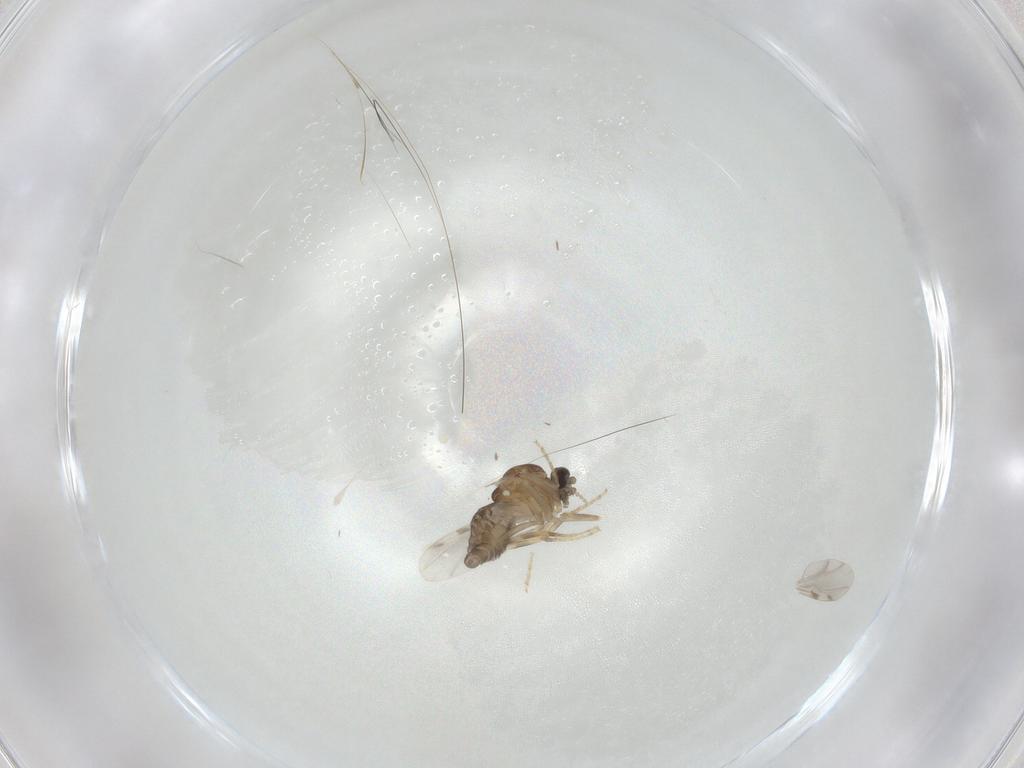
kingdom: Animalia
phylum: Arthropoda
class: Insecta
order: Diptera
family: Ceratopogonidae
